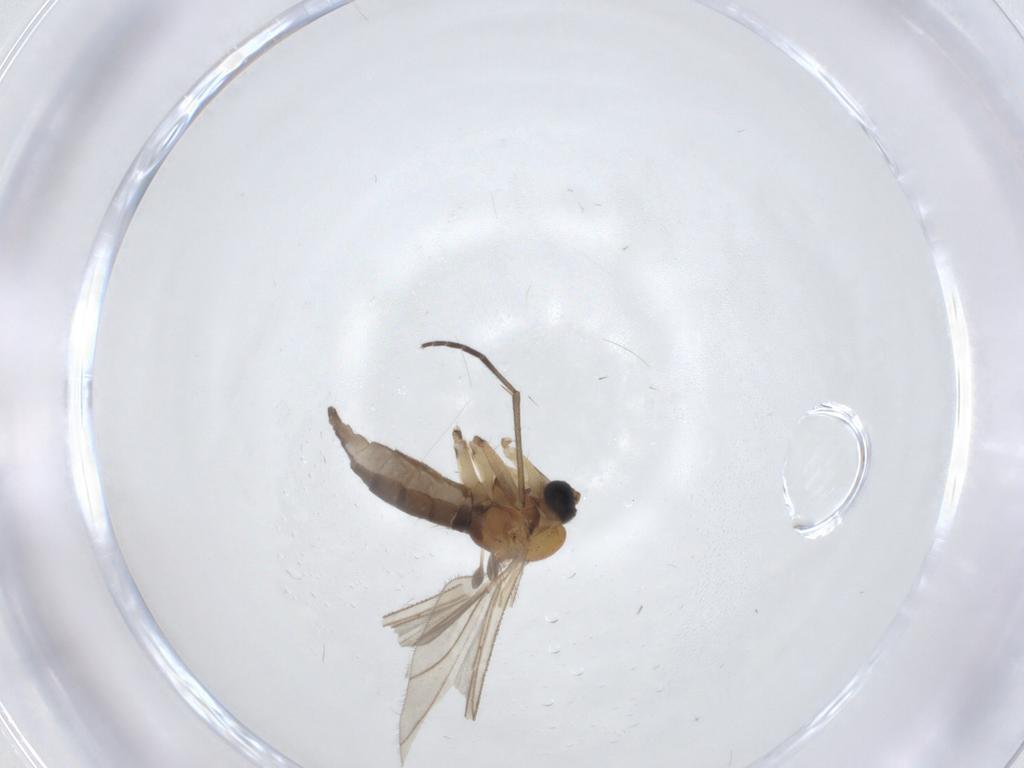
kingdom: Animalia
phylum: Arthropoda
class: Insecta
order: Diptera
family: Sciaridae
